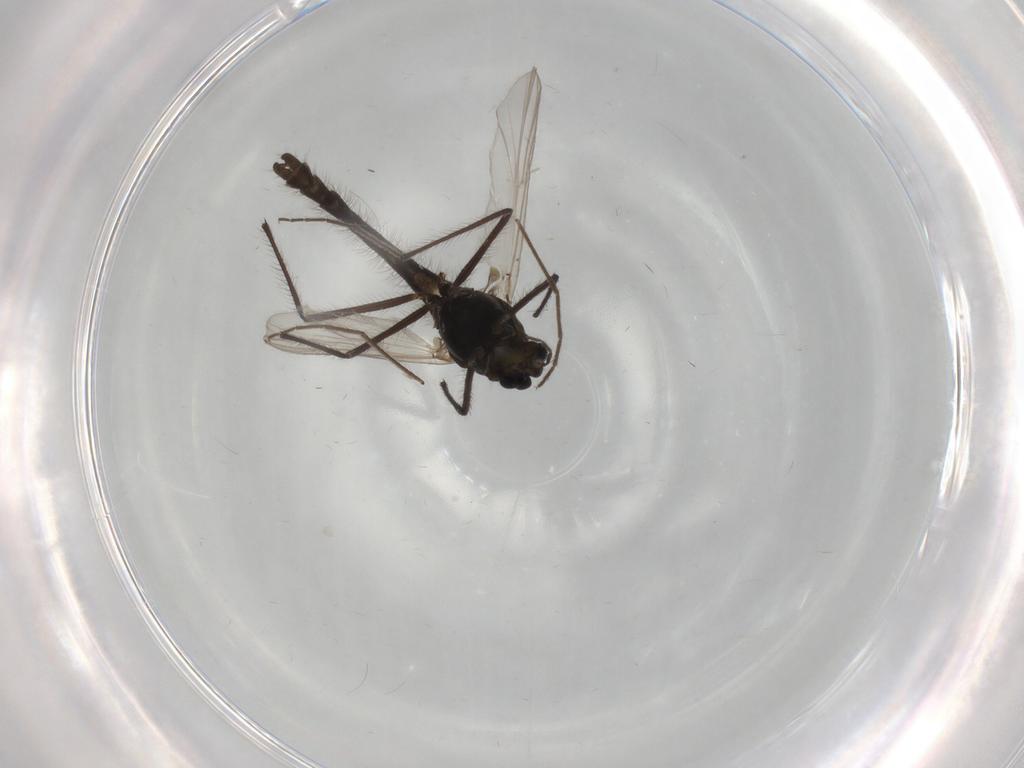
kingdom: Animalia
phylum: Arthropoda
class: Insecta
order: Diptera
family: Chironomidae
